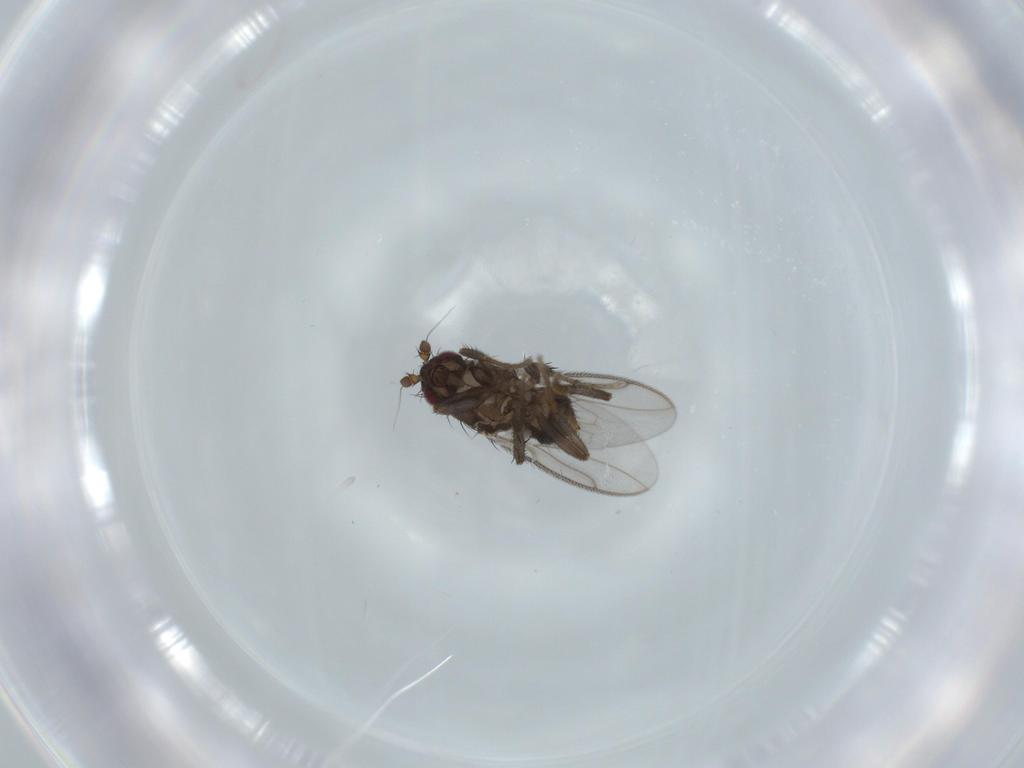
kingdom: Animalia
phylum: Arthropoda
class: Insecta
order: Diptera
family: Sphaeroceridae
